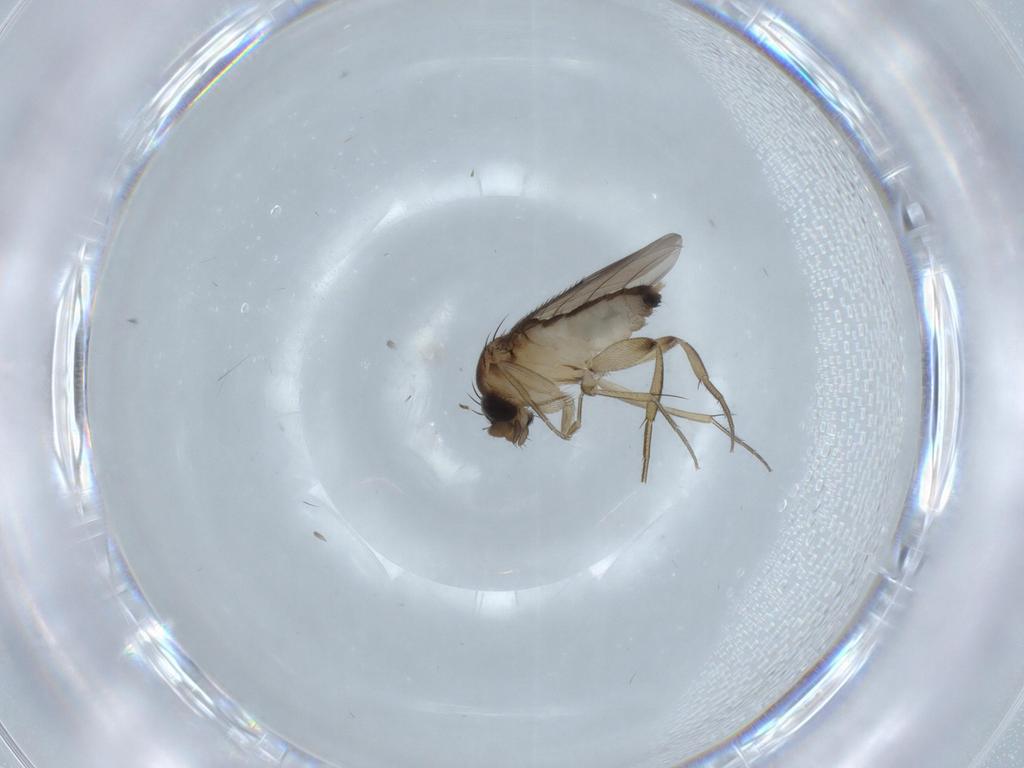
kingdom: Animalia
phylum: Arthropoda
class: Insecta
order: Diptera
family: Phoridae
